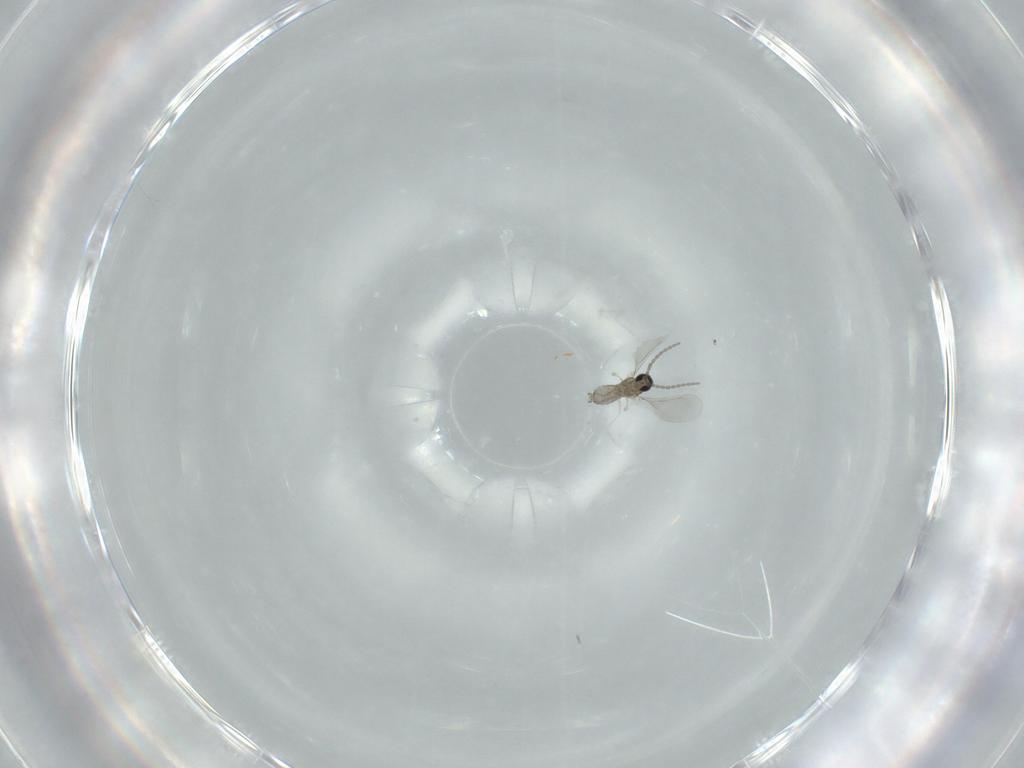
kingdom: Animalia
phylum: Arthropoda
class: Insecta
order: Diptera
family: Cecidomyiidae
